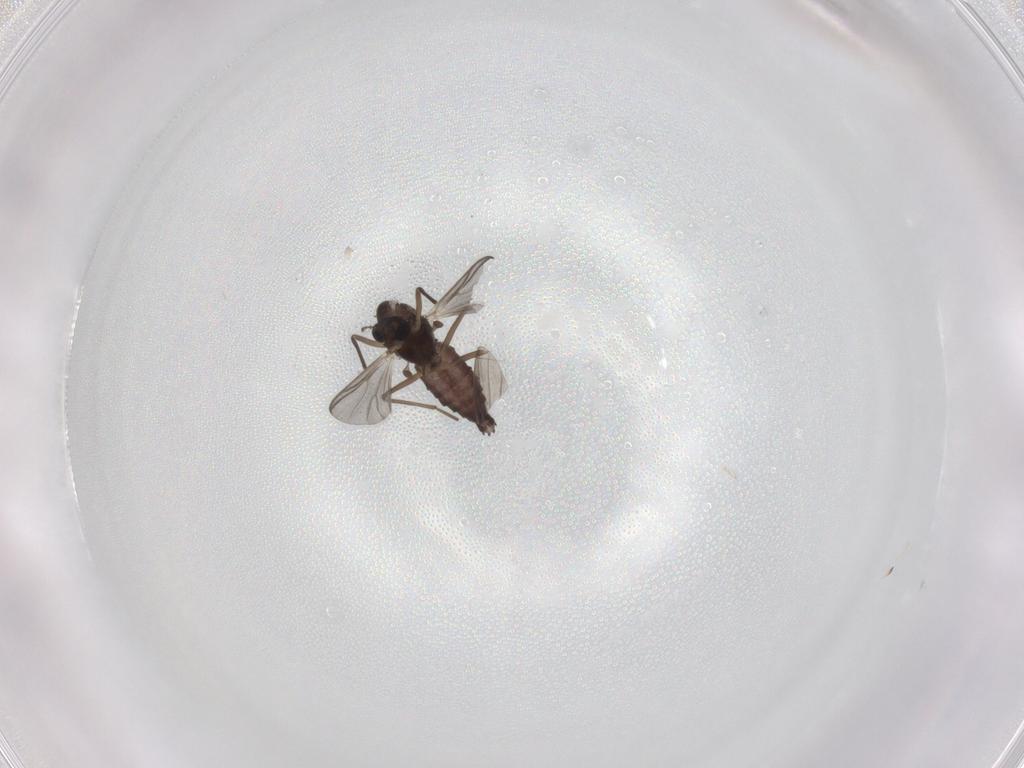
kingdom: Animalia
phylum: Arthropoda
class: Insecta
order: Diptera
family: Chironomidae
